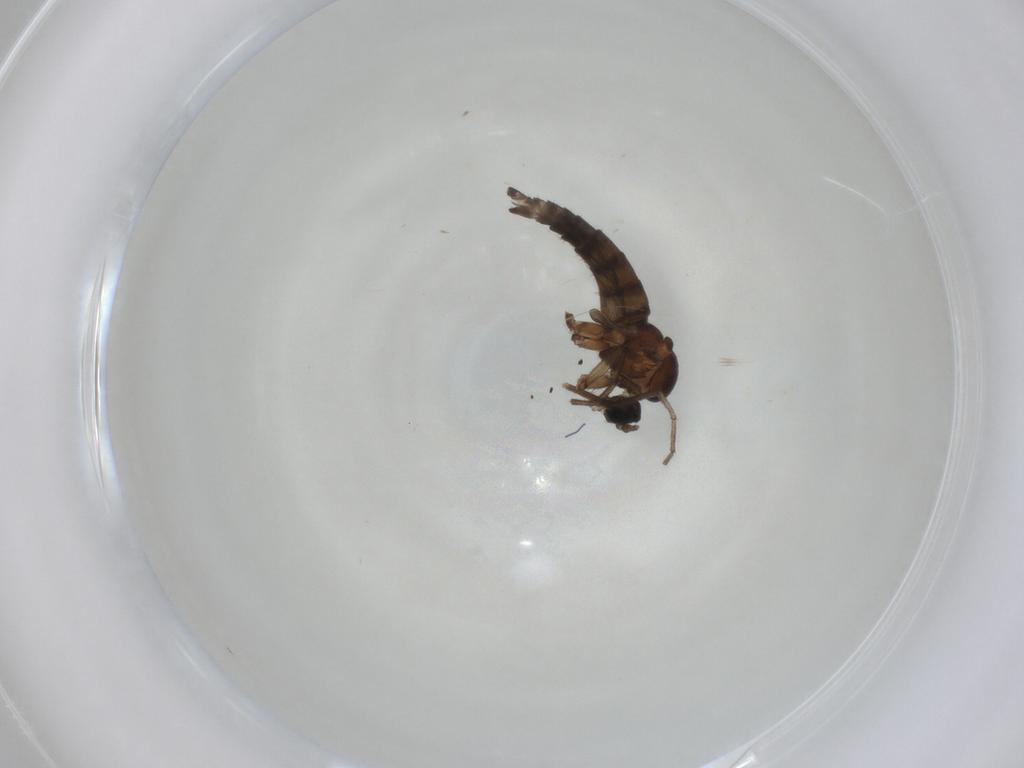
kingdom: Animalia
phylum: Arthropoda
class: Insecta
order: Diptera
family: Sciaridae
